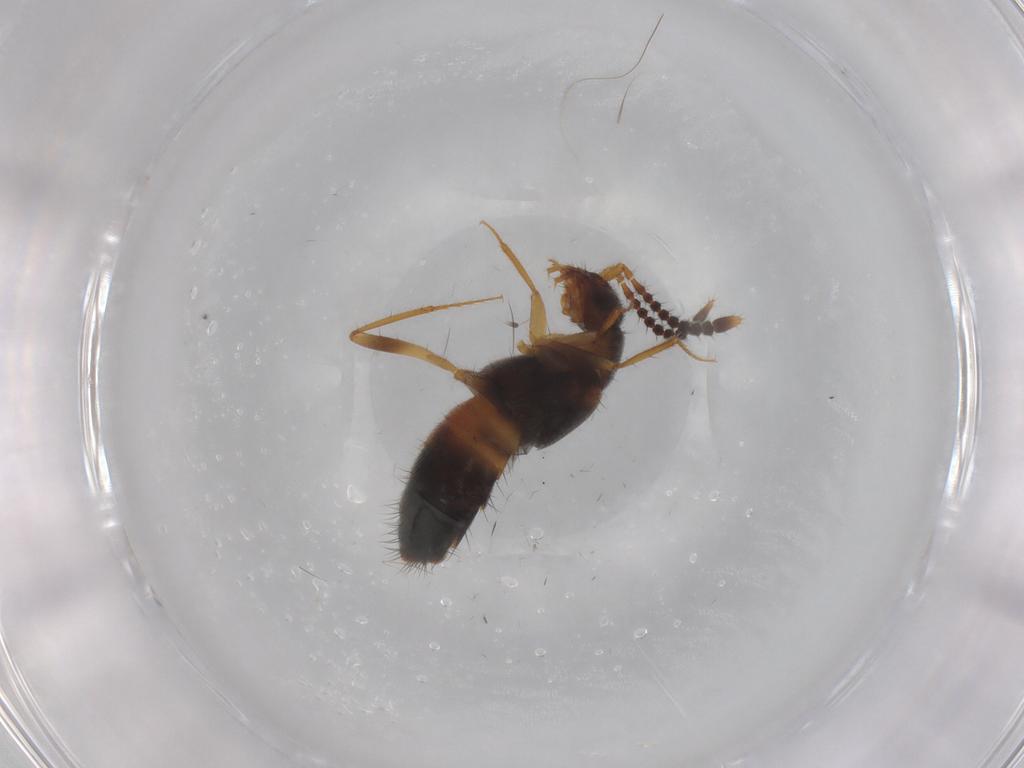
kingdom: Animalia
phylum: Arthropoda
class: Insecta
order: Coleoptera
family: Staphylinidae
